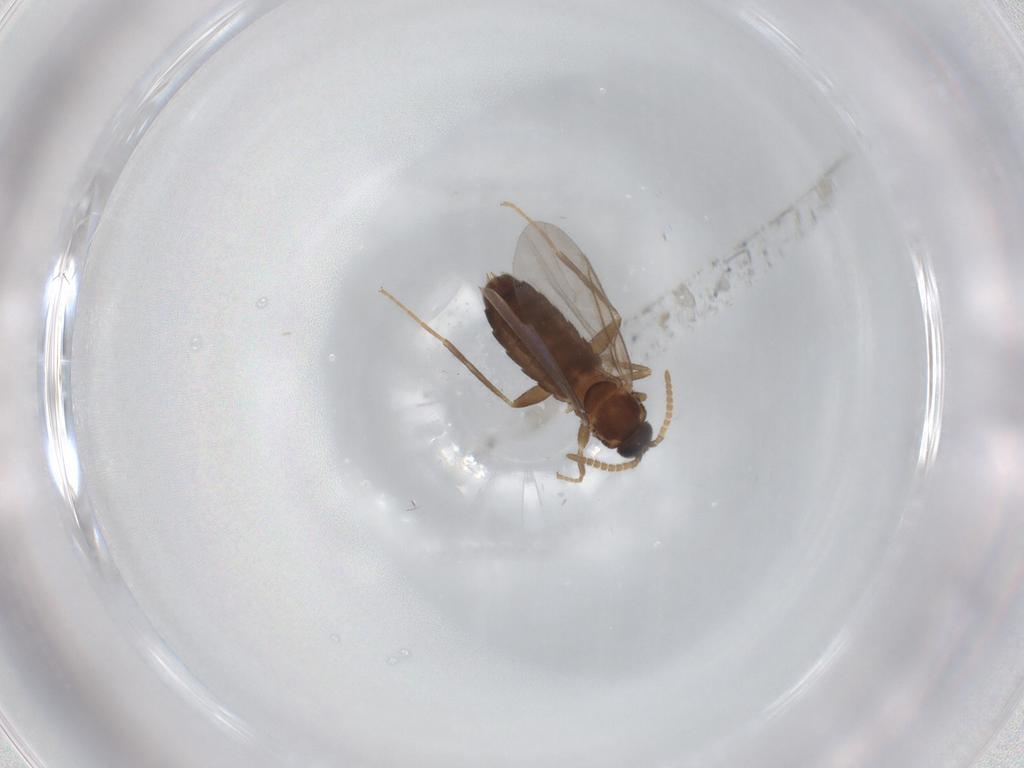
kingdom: Animalia
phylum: Arthropoda
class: Insecta
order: Diptera
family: Scatopsidae
